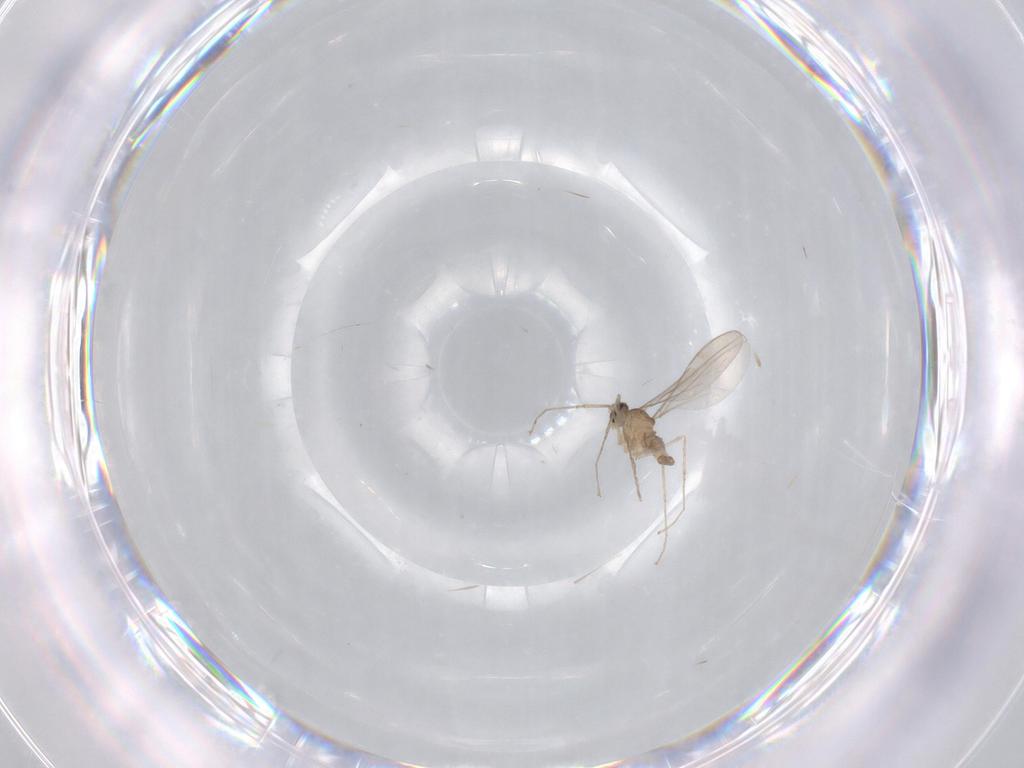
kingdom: Animalia
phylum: Arthropoda
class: Insecta
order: Diptera
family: Cecidomyiidae
